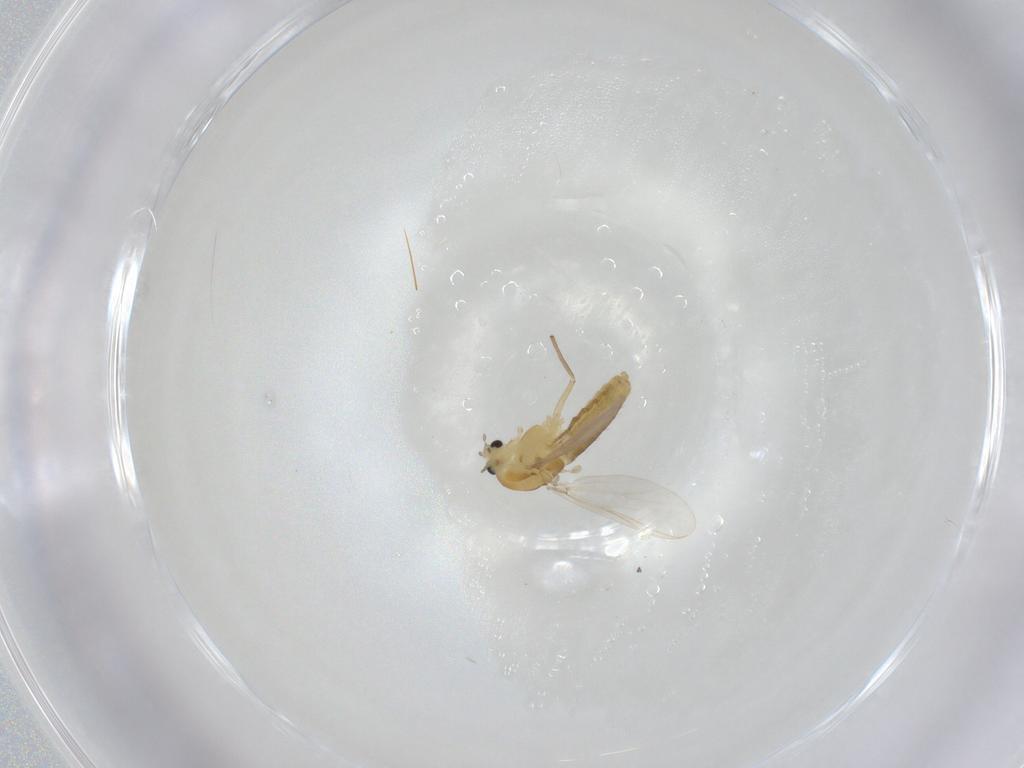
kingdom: Animalia
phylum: Arthropoda
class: Insecta
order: Diptera
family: Chironomidae
